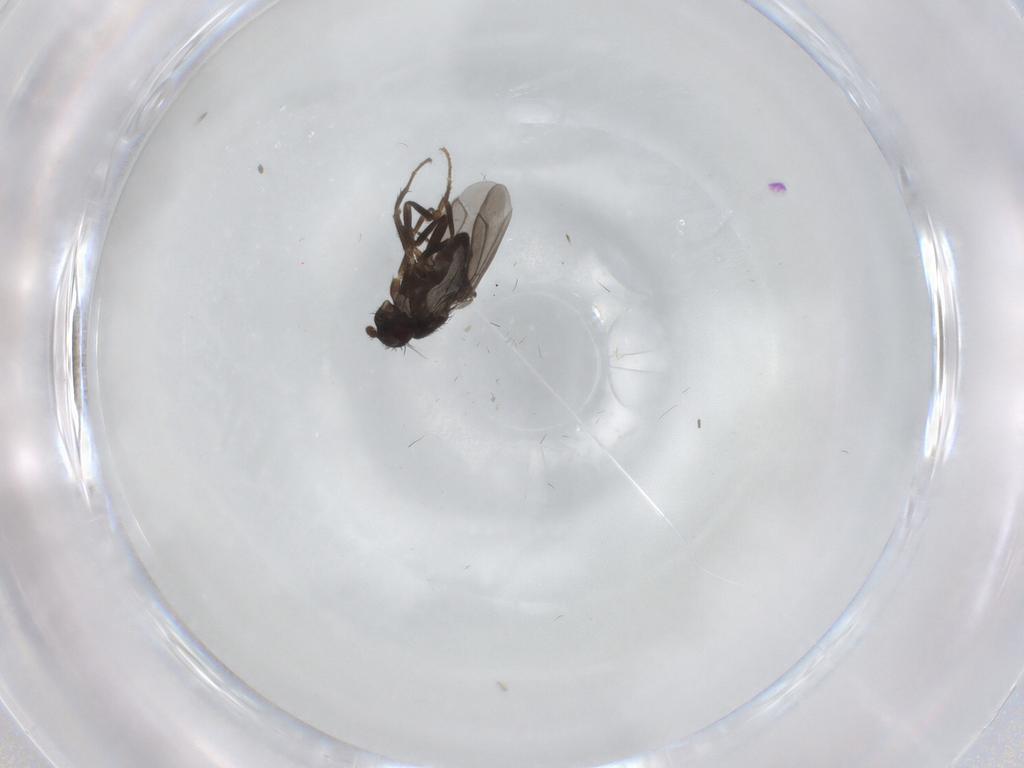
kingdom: Animalia
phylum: Arthropoda
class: Insecta
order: Diptera
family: Sphaeroceridae
